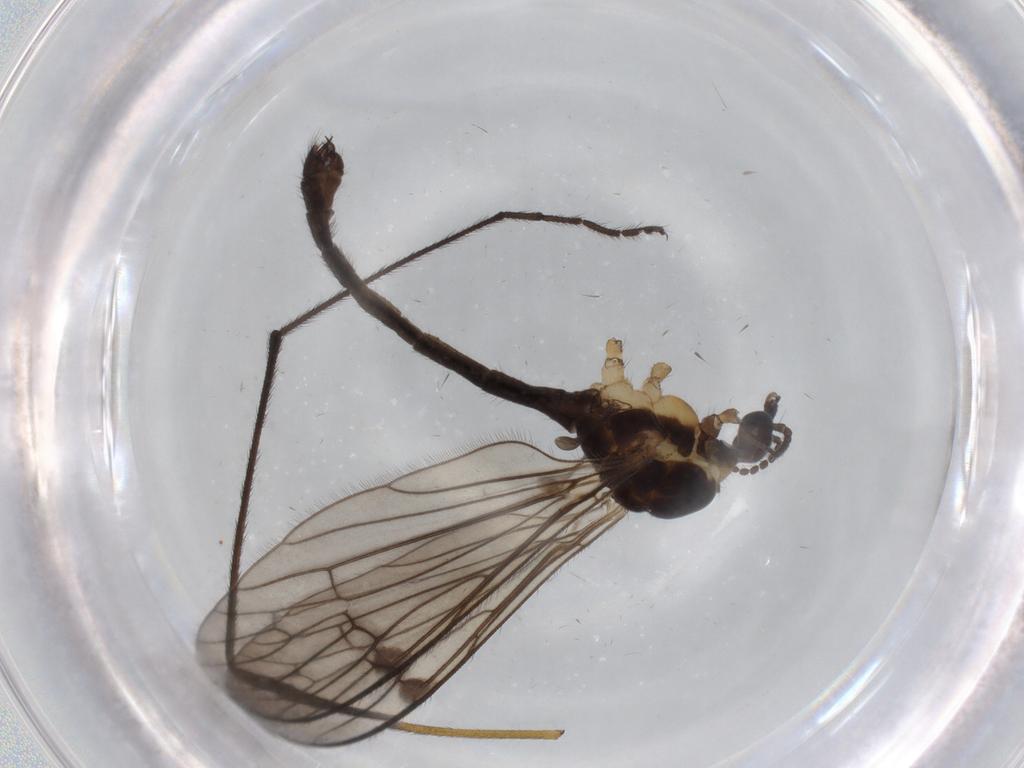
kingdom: Animalia
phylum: Arthropoda
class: Insecta
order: Diptera
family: Limoniidae
